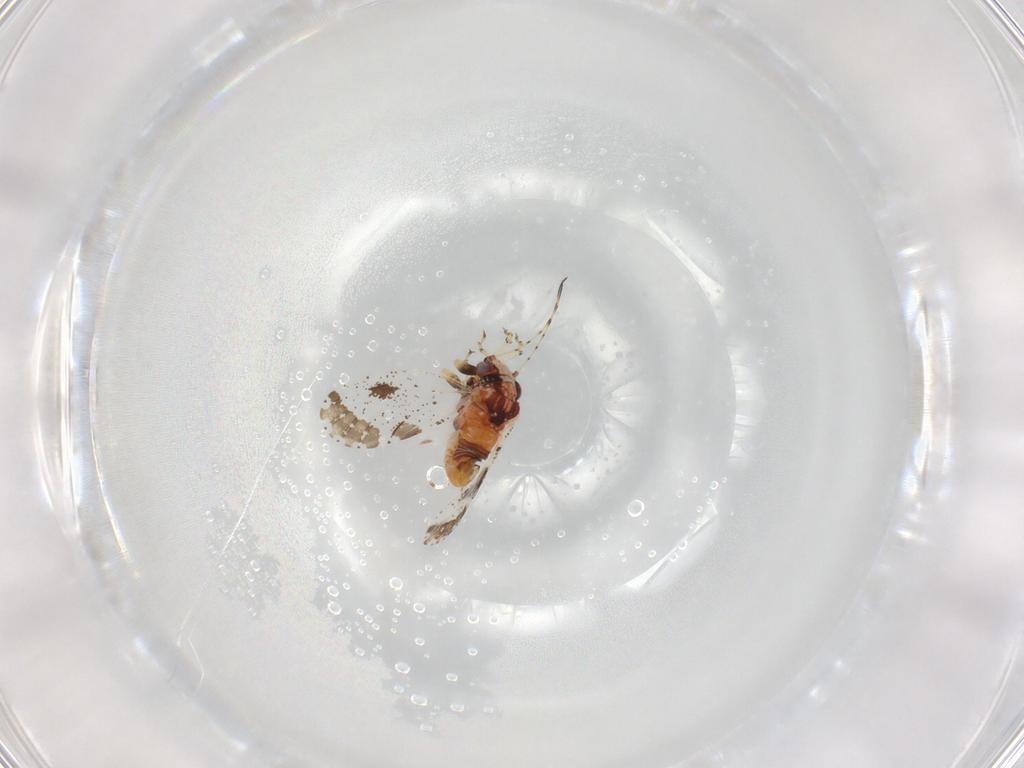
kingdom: Animalia
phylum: Arthropoda
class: Insecta
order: Hemiptera
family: Psyllidae
